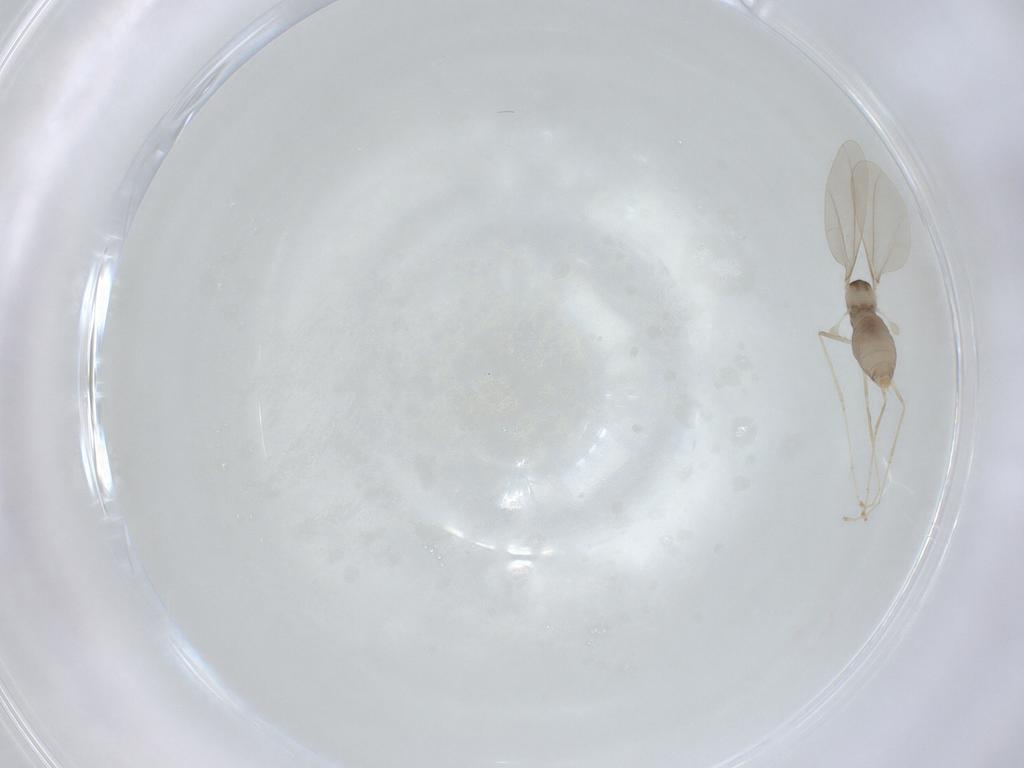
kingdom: Animalia
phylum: Arthropoda
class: Insecta
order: Diptera
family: Cecidomyiidae
